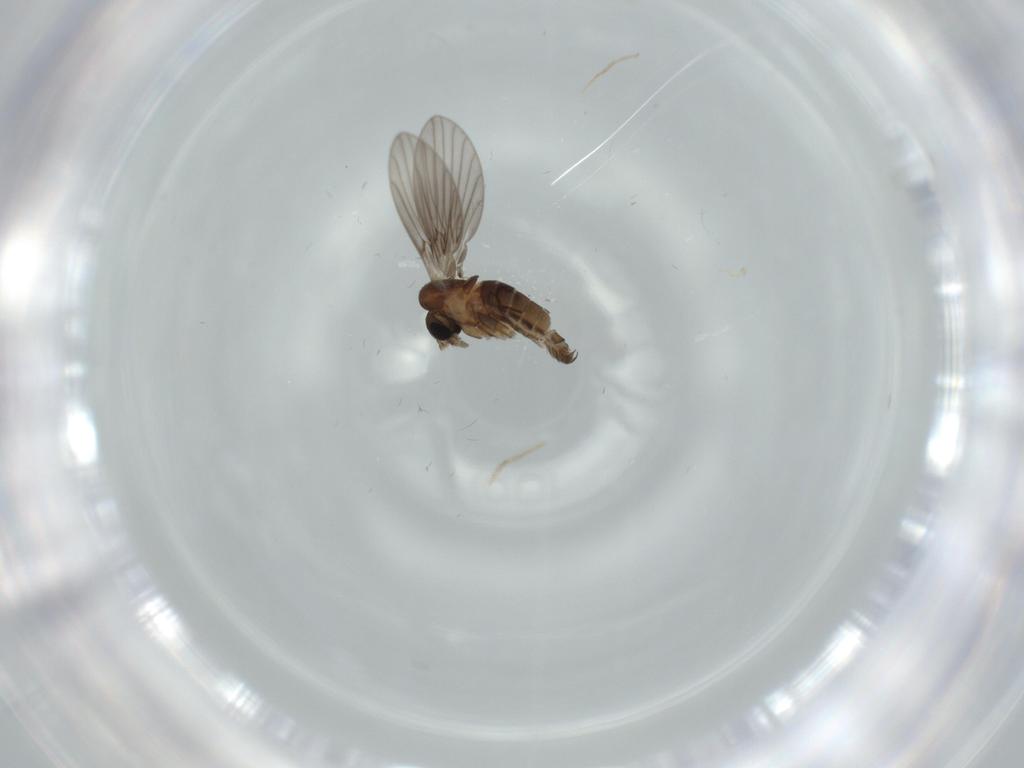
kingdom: Animalia
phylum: Arthropoda
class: Insecta
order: Diptera
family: Psychodidae
